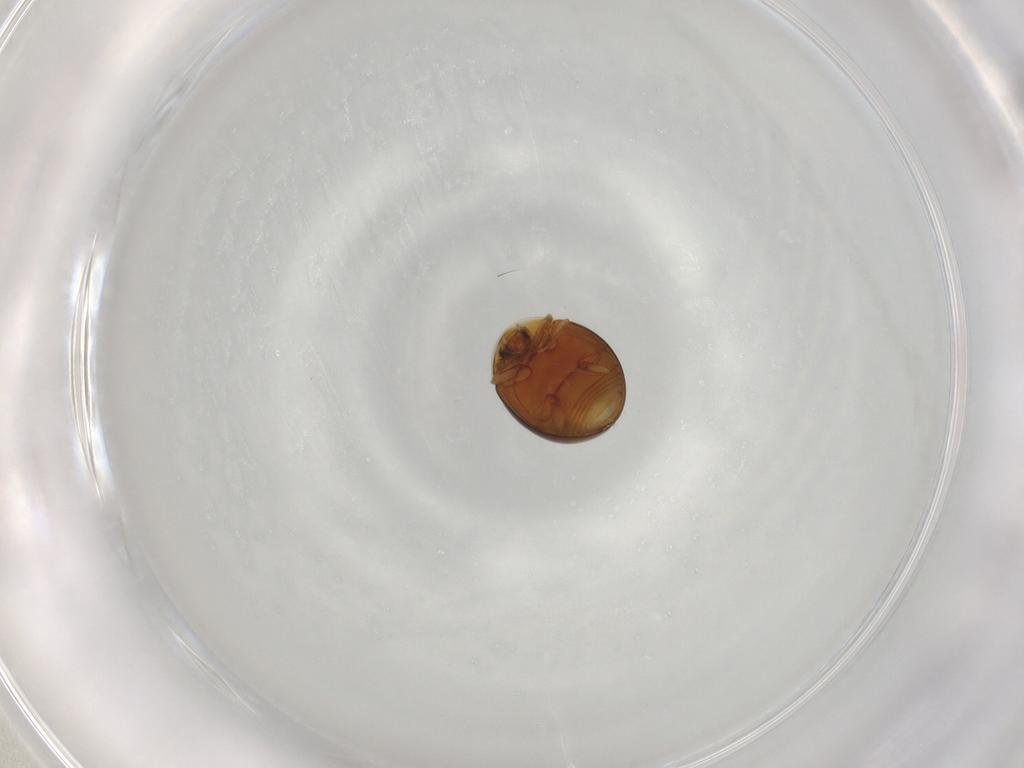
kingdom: Animalia
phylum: Arthropoda
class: Insecta
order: Coleoptera
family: Corylophidae
